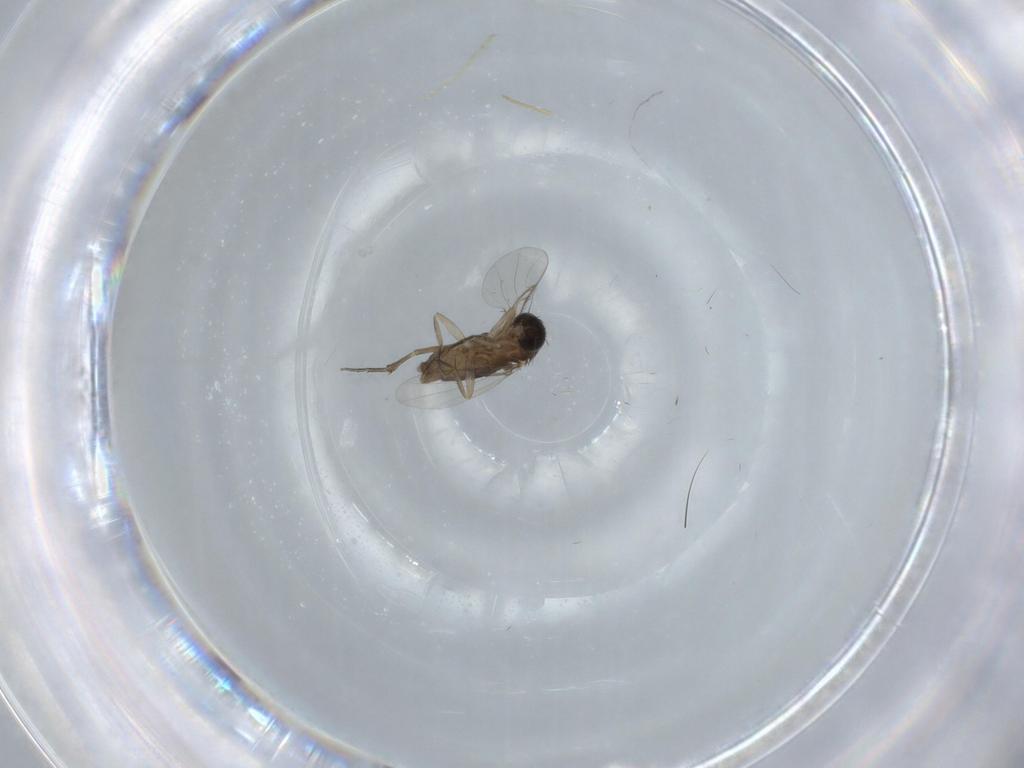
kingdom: Animalia
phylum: Arthropoda
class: Insecta
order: Diptera
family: Phoridae
